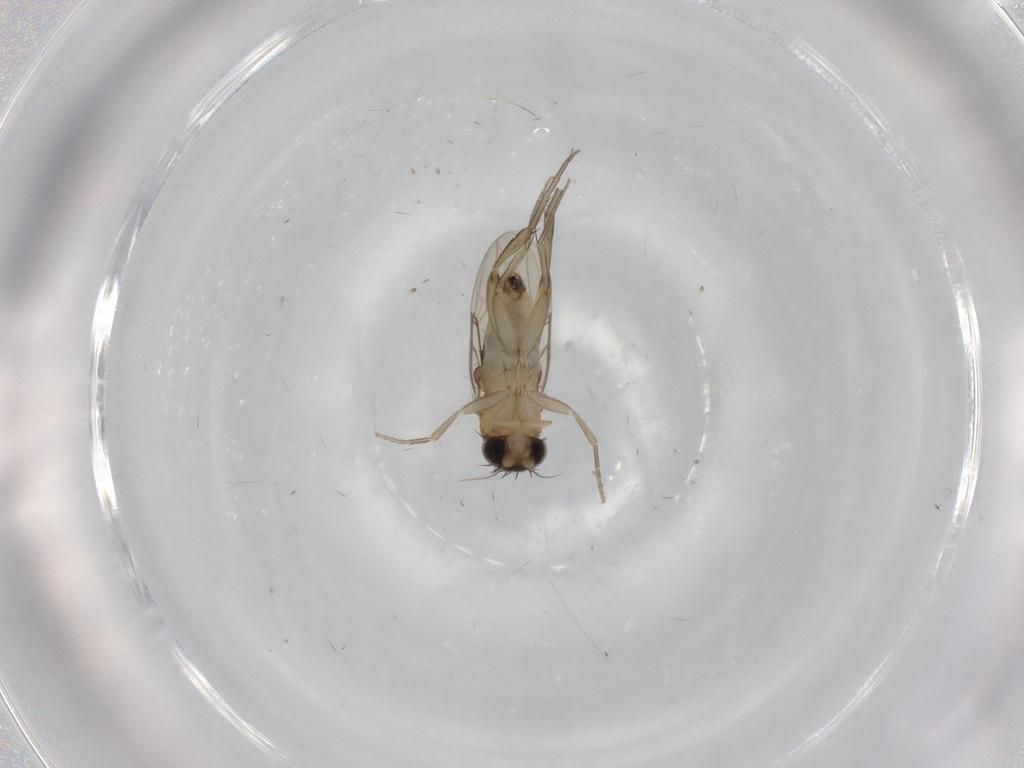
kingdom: Animalia
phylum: Arthropoda
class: Insecta
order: Diptera
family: Phoridae
